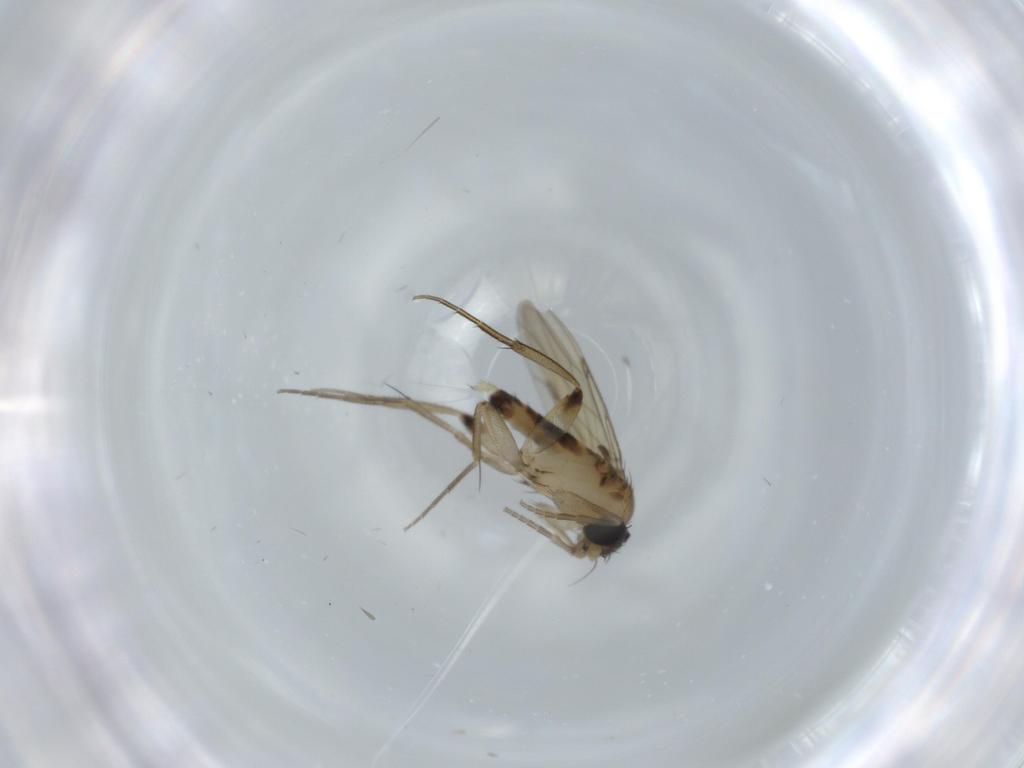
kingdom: Animalia
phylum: Arthropoda
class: Insecta
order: Diptera
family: Phoridae
